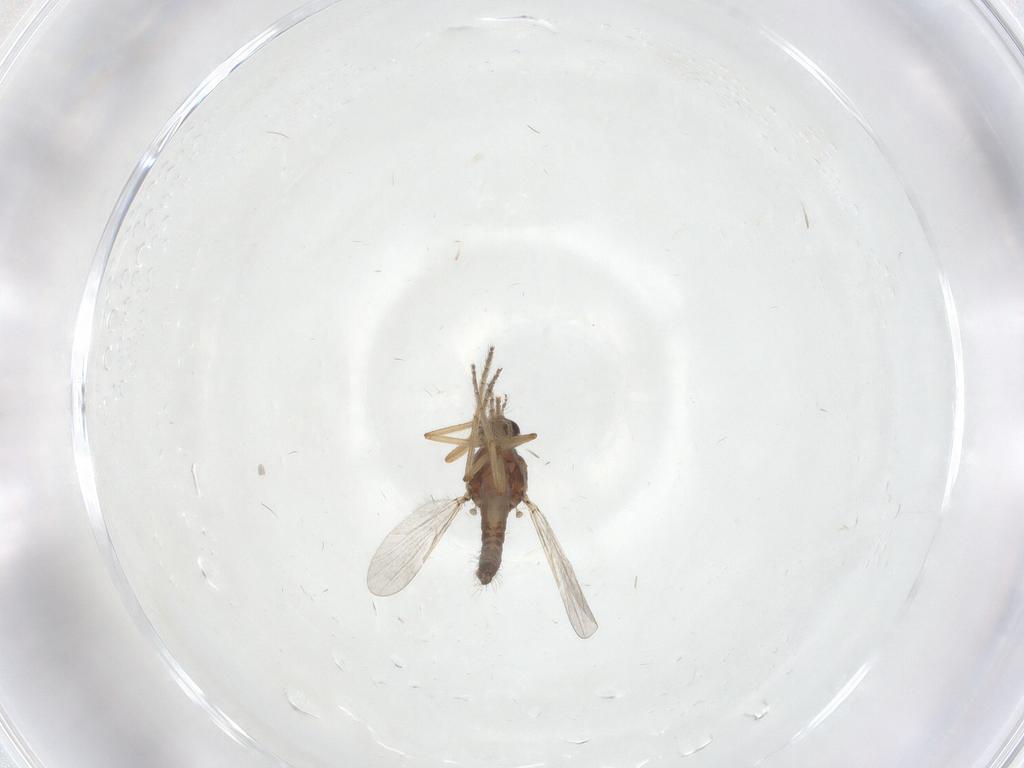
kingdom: Animalia
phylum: Arthropoda
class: Insecta
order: Diptera
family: Ceratopogonidae
